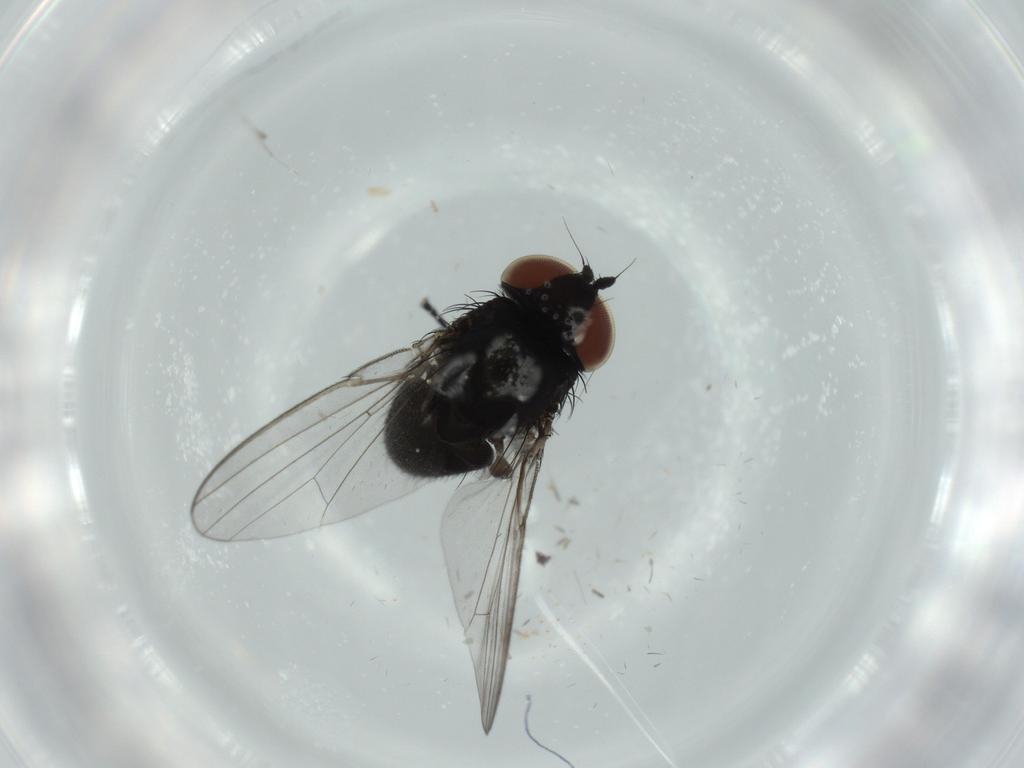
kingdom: Animalia
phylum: Arthropoda
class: Insecta
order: Diptera
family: Milichiidae
